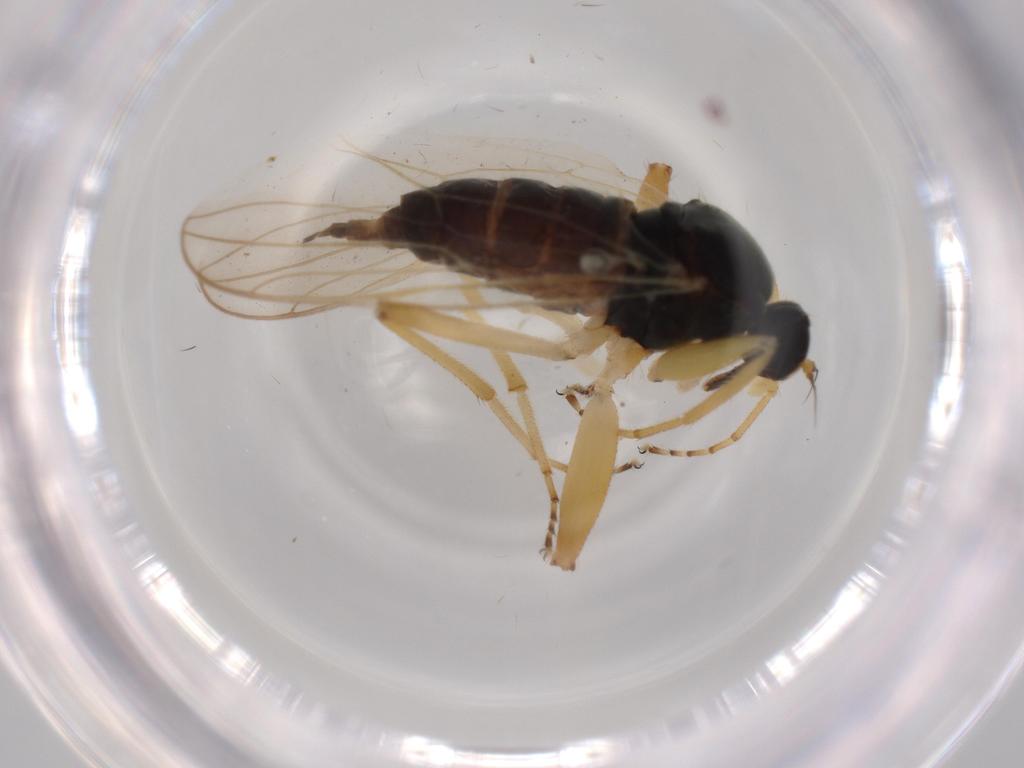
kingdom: Animalia
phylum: Arthropoda
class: Insecta
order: Diptera
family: Hybotidae
